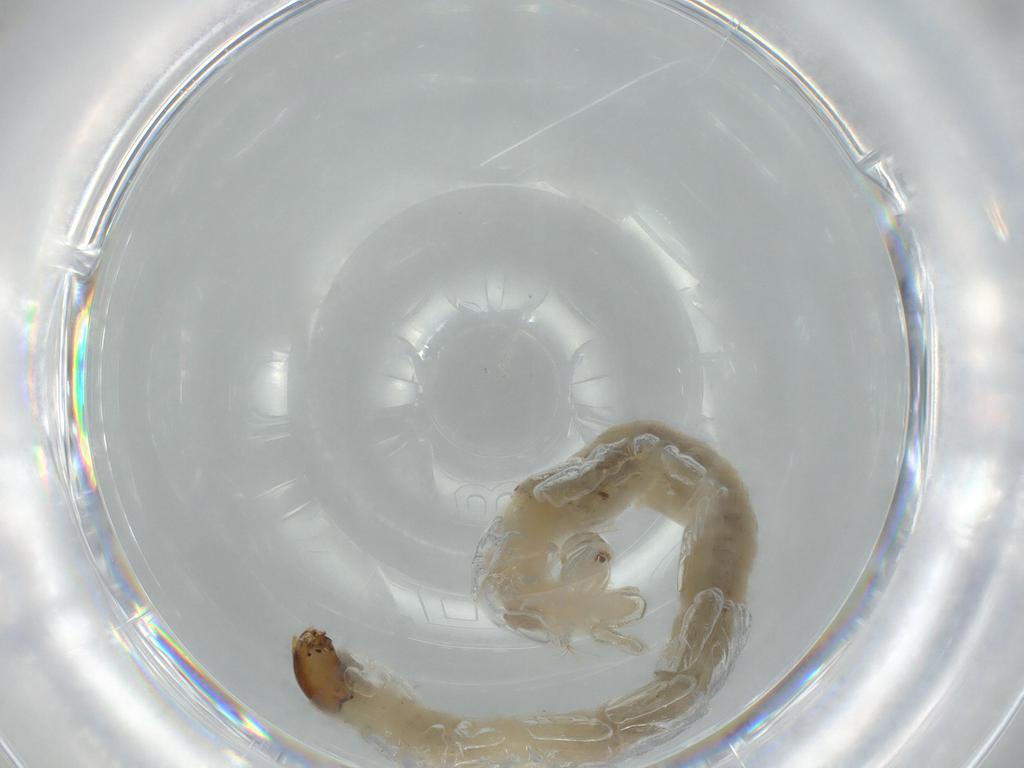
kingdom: Animalia
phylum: Arthropoda
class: Insecta
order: Diptera
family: Chironomidae
